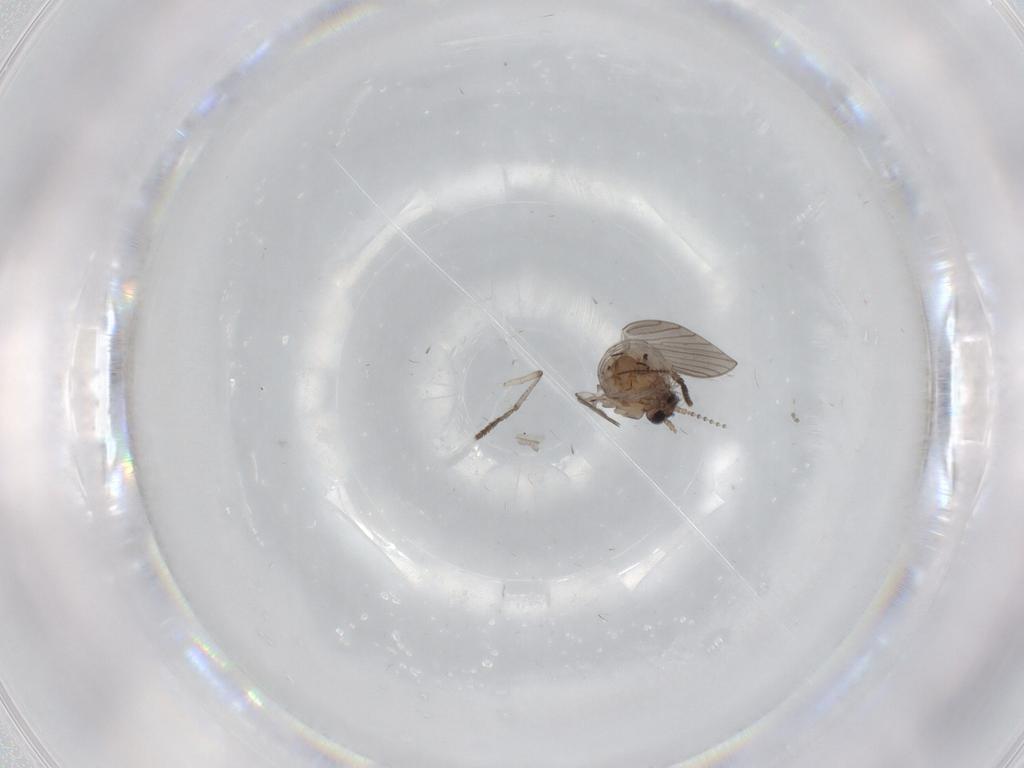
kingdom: Animalia
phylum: Arthropoda
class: Insecta
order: Diptera
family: Psychodidae
